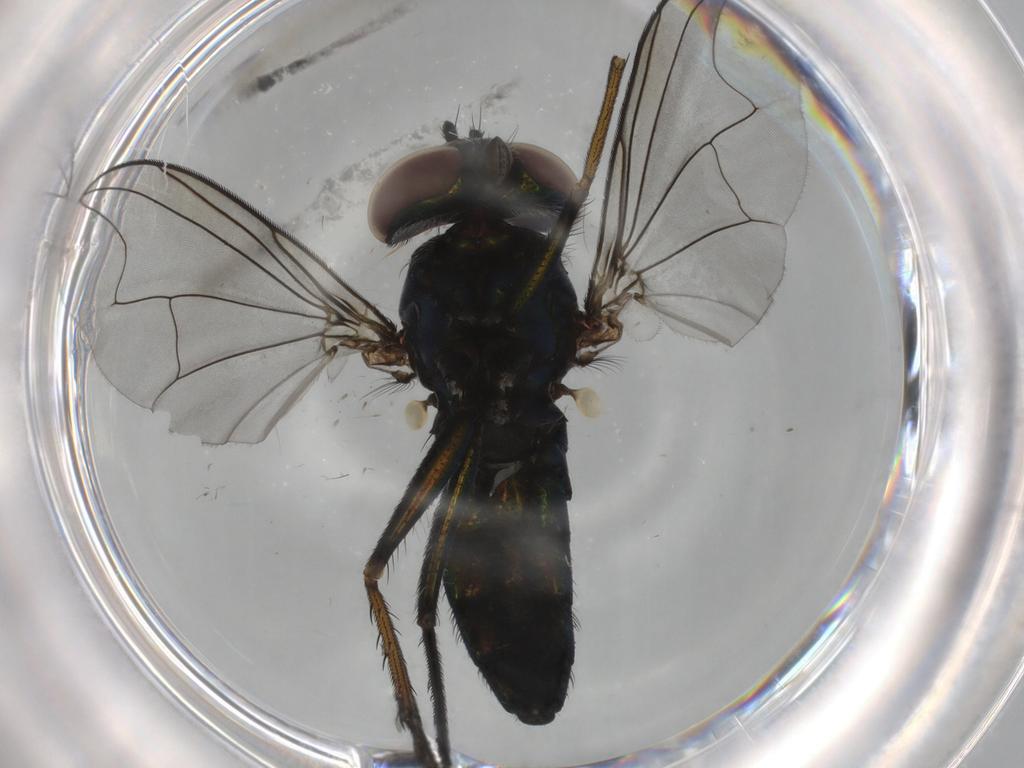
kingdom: Animalia
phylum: Arthropoda
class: Insecta
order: Diptera
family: Dolichopodidae
